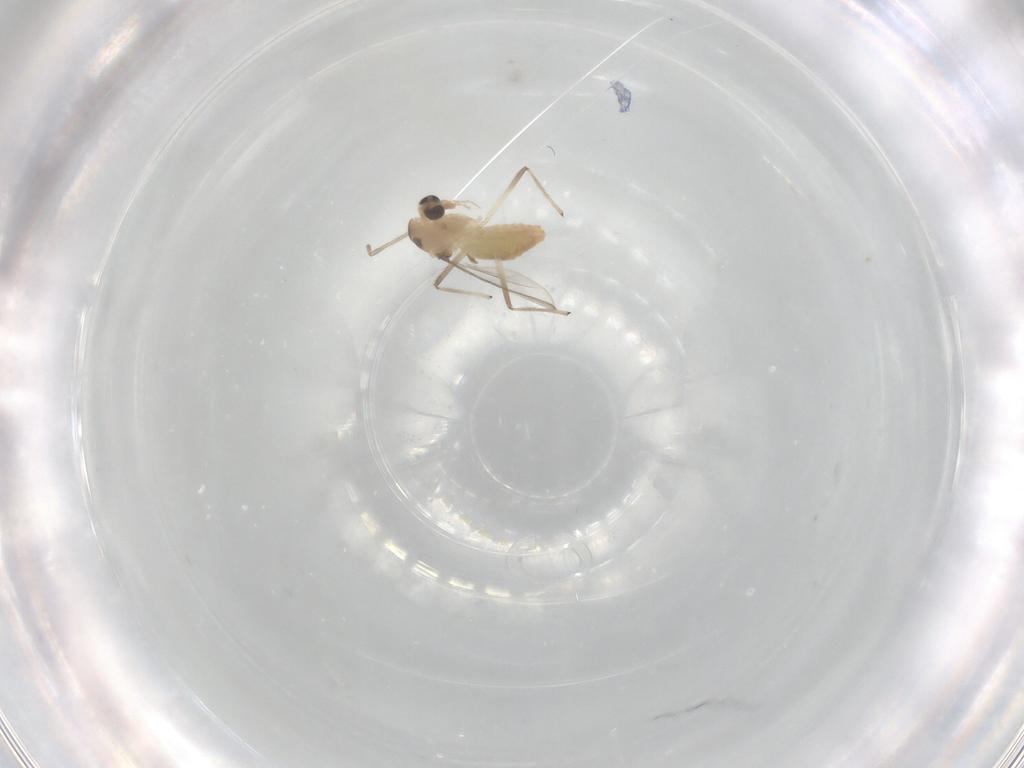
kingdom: Animalia
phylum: Arthropoda
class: Insecta
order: Diptera
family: Chironomidae
